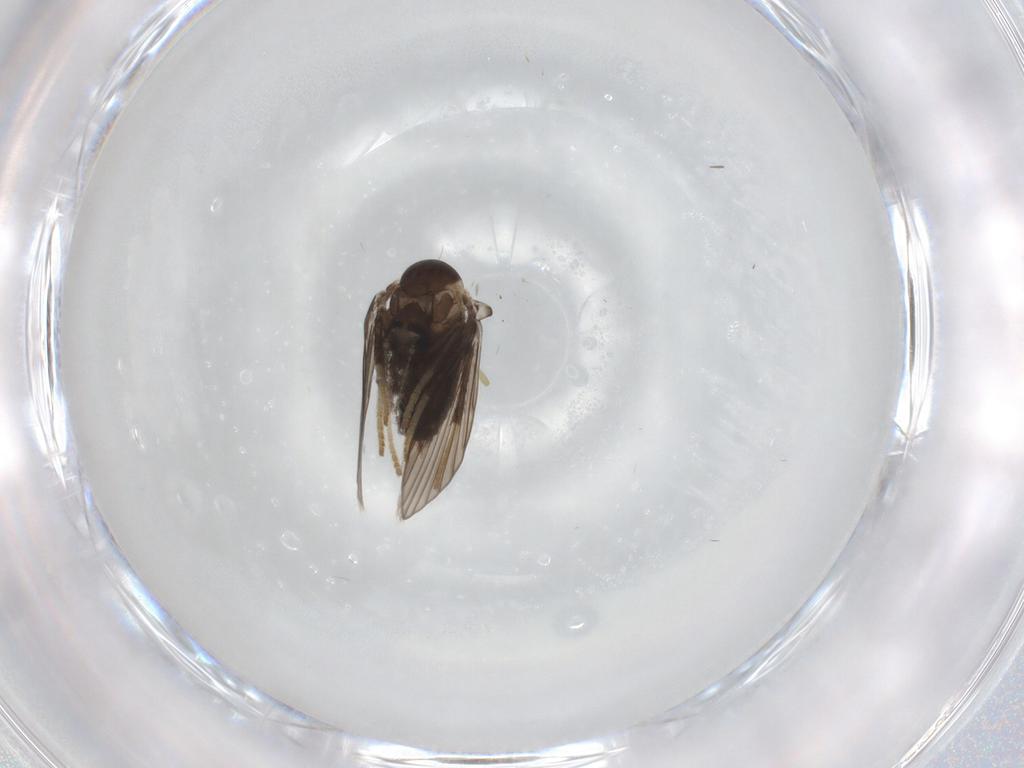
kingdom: Animalia
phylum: Arthropoda
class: Insecta
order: Diptera
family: Psychodidae
